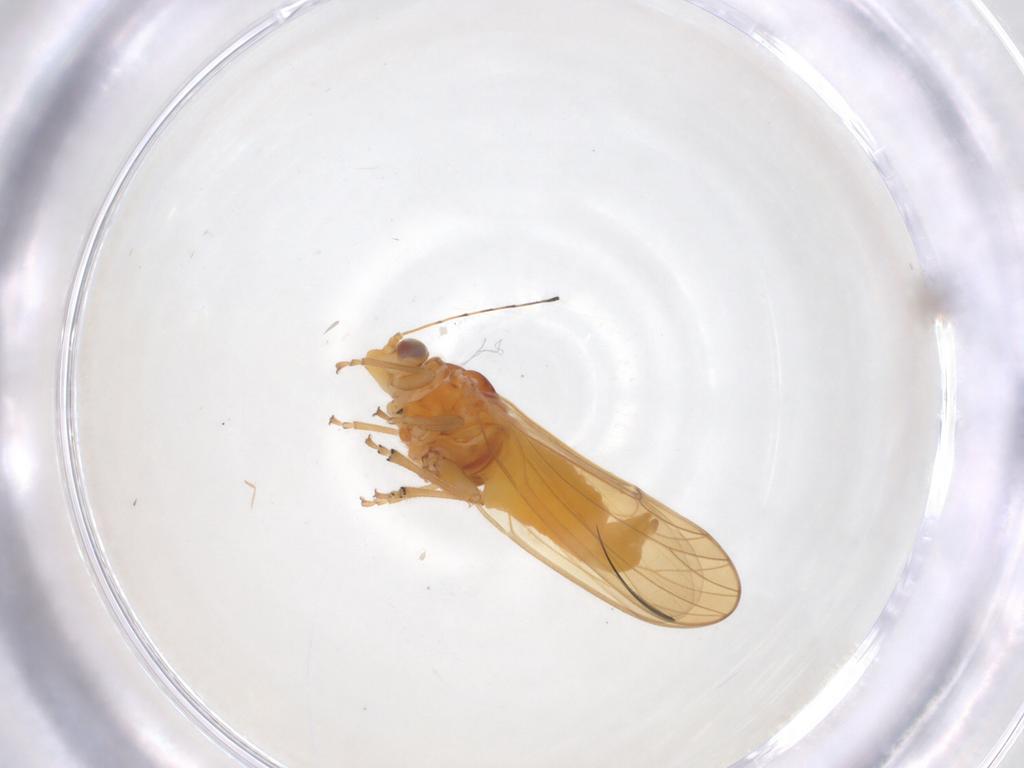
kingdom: Animalia
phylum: Arthropoda
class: Insecta
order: Hemiptera
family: Psylloidea_incertae_sedis
